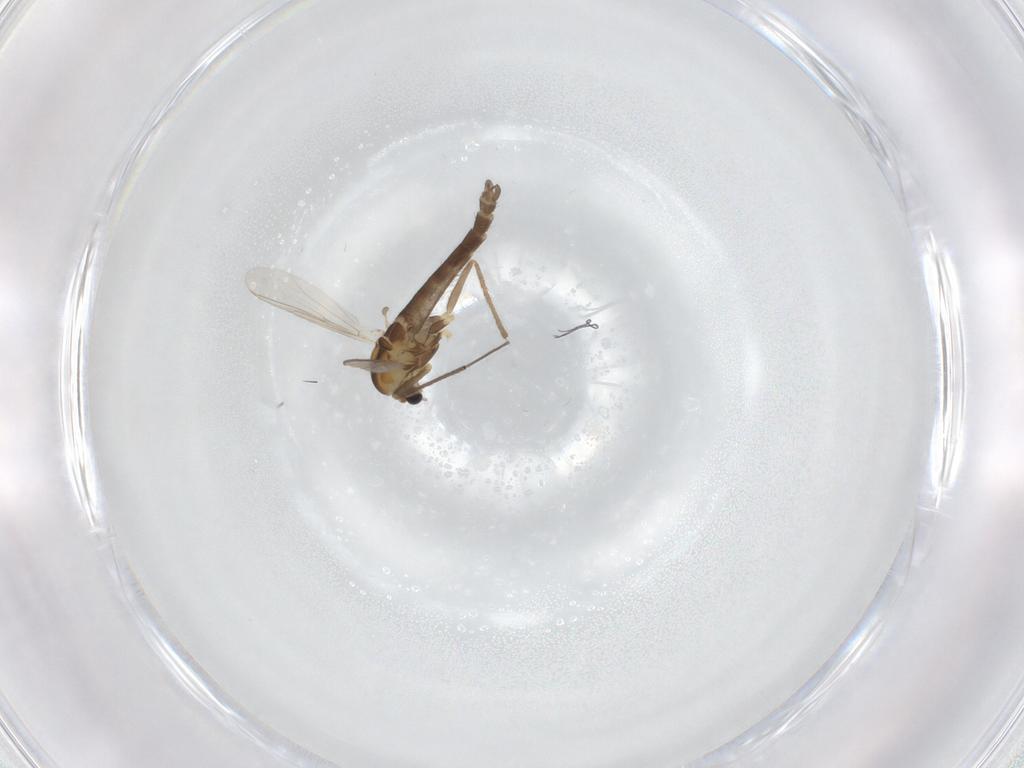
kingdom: Animalia
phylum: Arthropoda
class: Insecta
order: Diptera
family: Chironomidae
